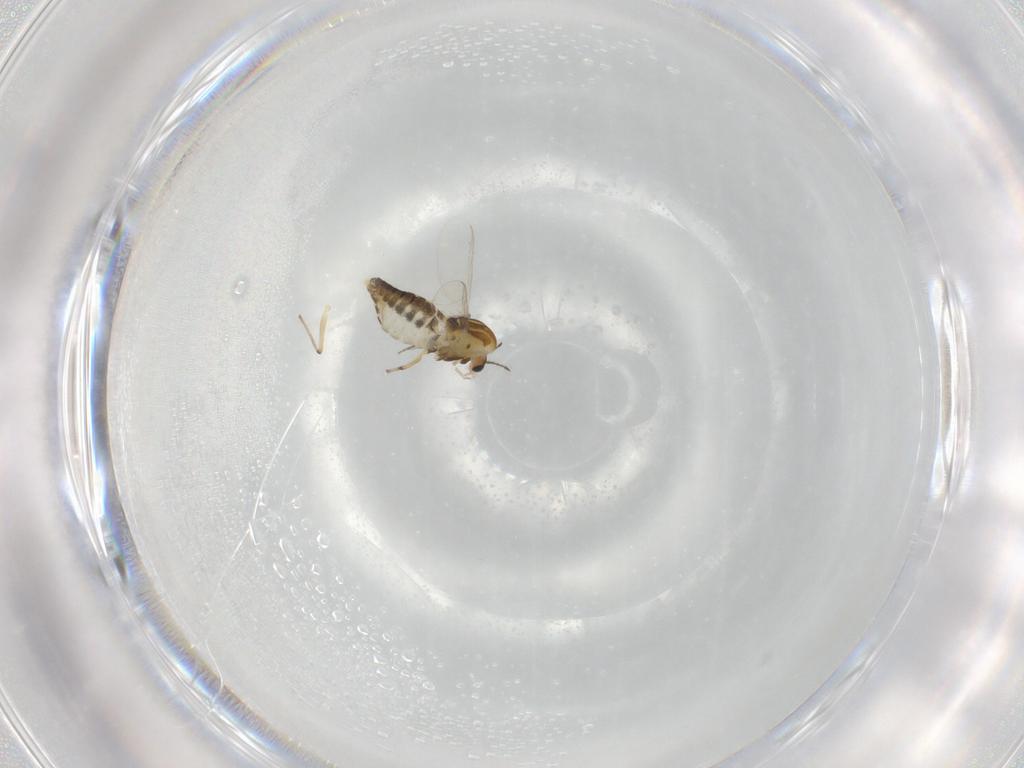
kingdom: Animalia
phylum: Arthropoda
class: Insecta
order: Diptera
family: Chironomidae
